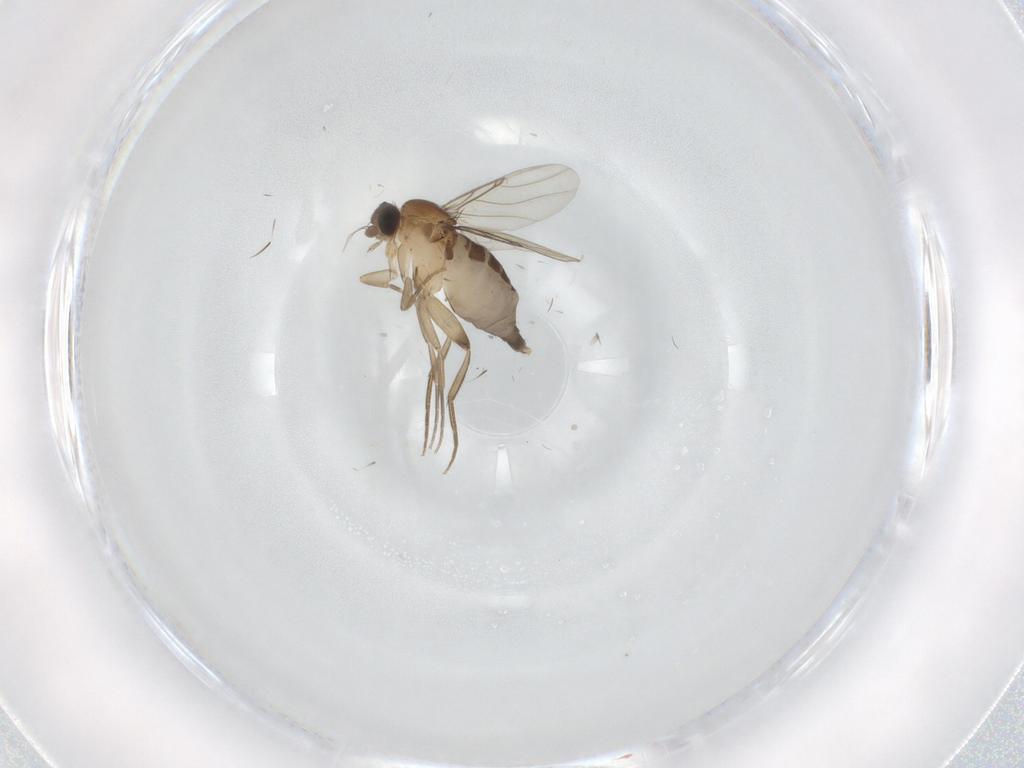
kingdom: Animalia
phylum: Arthropoda
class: Insecta
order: Diptera
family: Phoridae
